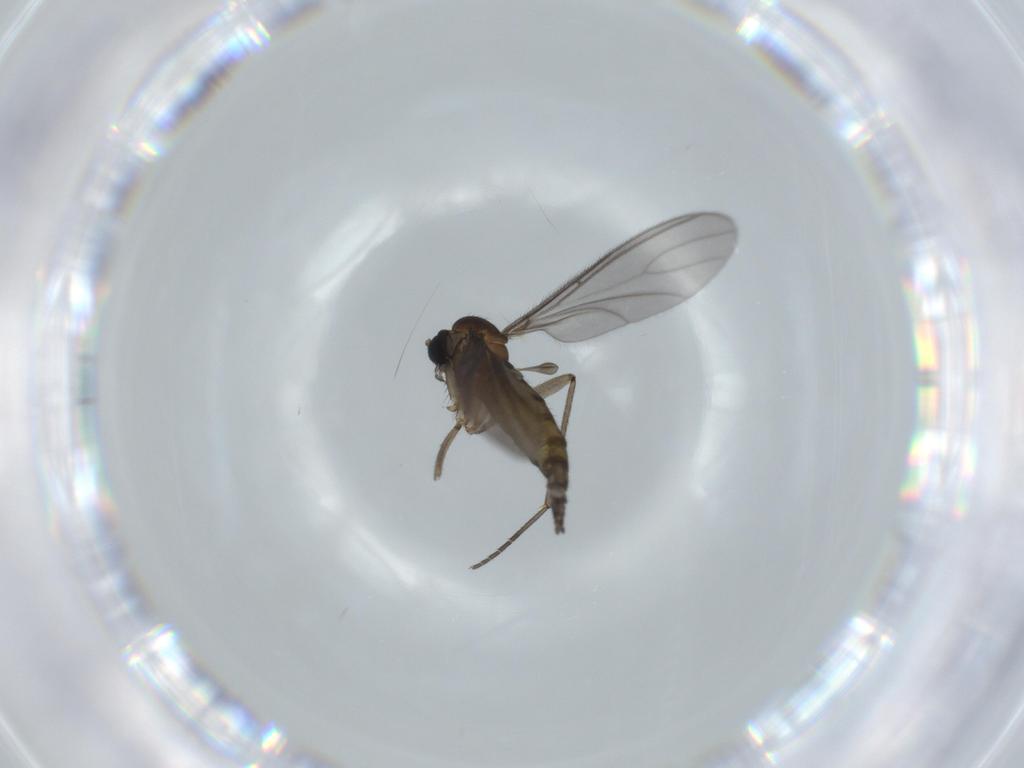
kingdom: Animalia
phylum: Arthropoda
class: Insecta
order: Diptera
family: Sciaridae
